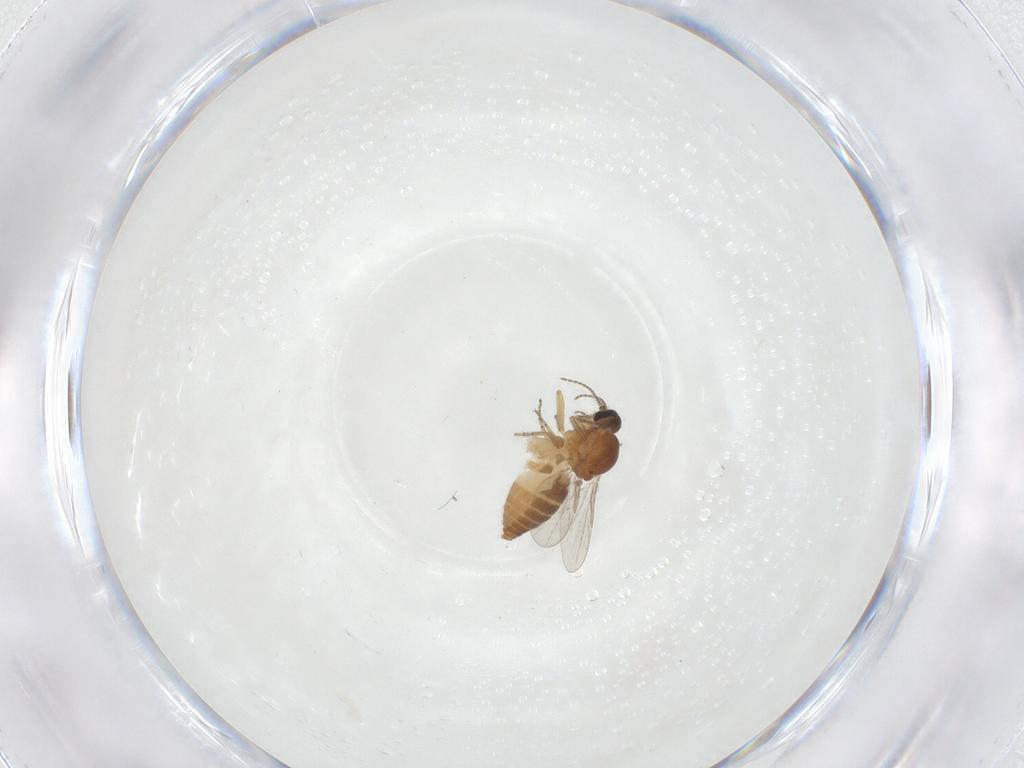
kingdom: Animalia
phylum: Arthropoda
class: Insecta
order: Diptera
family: Ceratopogonidae
